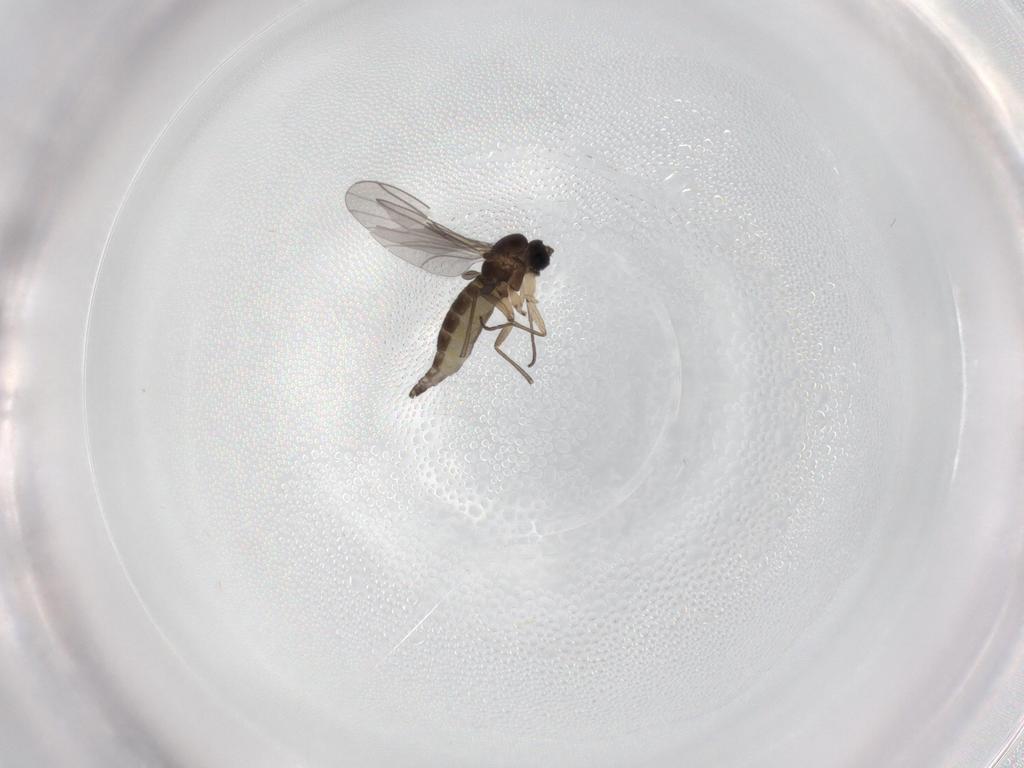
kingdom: Animalia
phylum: Arthropoda
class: Insecta
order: Diptera
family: Sciaridae
